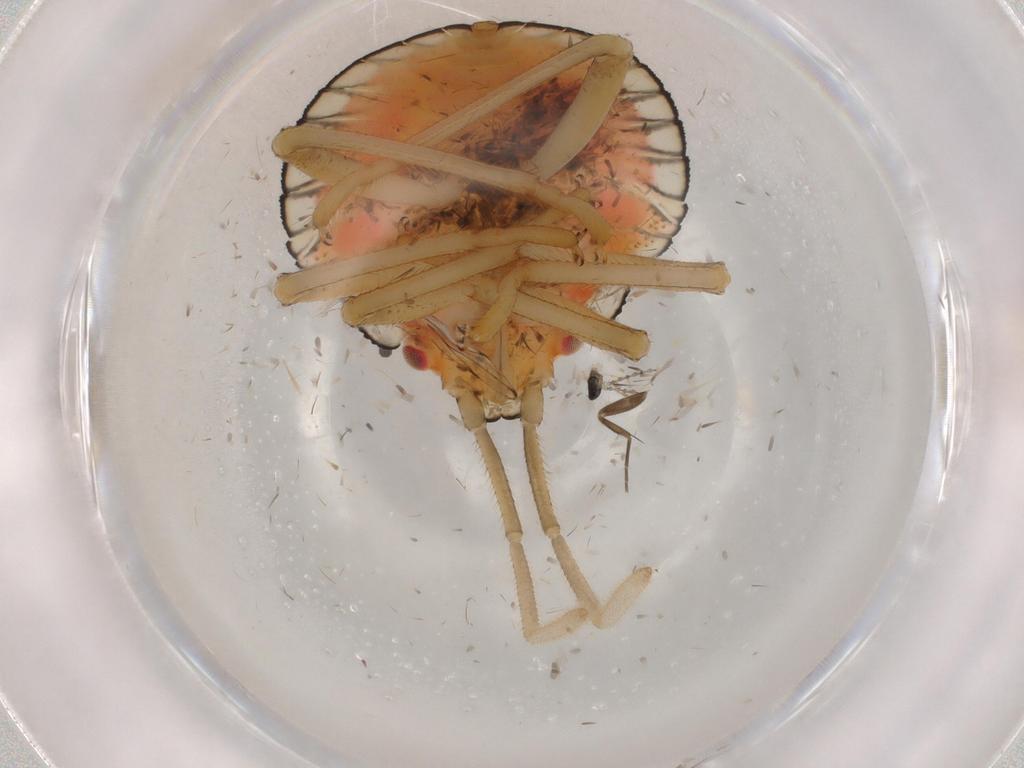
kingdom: Animalia
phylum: Arthropoda
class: Insecta
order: Hemiptera
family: Pentatomidae
